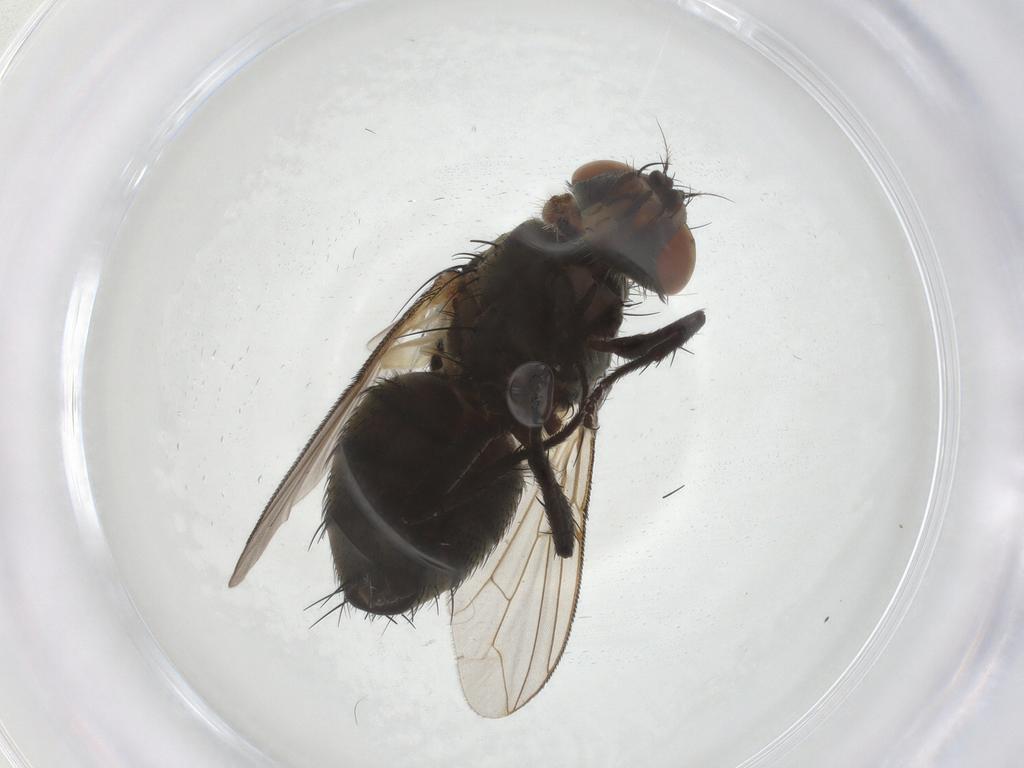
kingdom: Animalia
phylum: Arthropoda
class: Insecta
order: Diptera
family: Sarcophagidae
